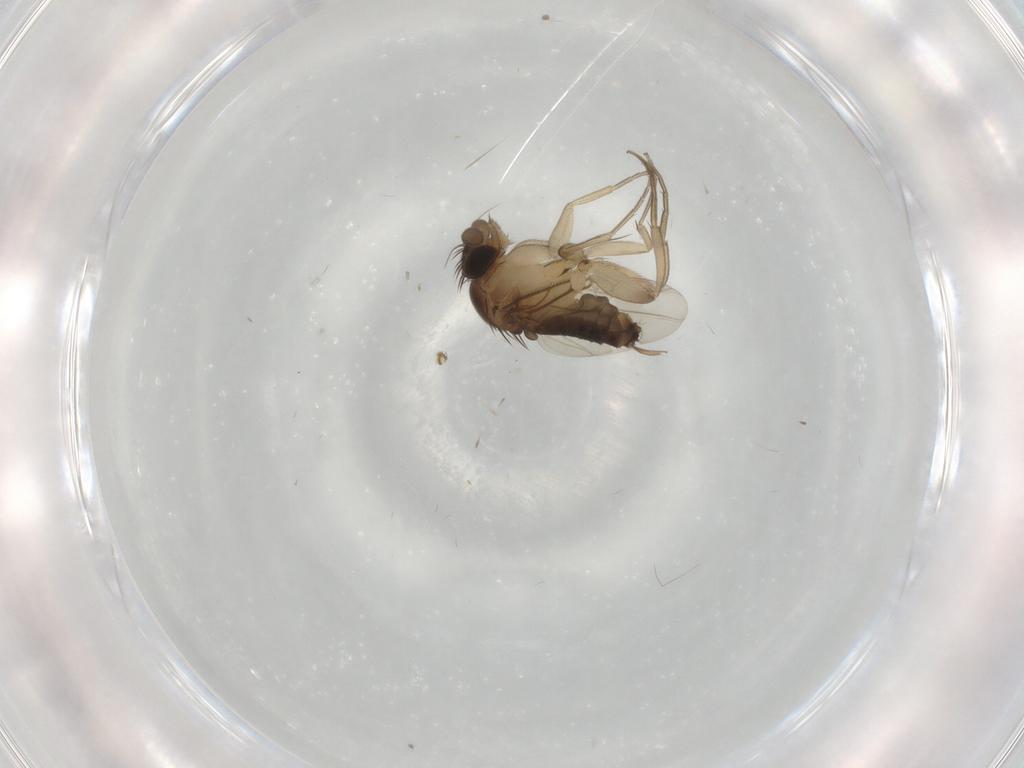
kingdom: Animalia
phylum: Arthropoda
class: Insecta
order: Diptera
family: Phoridae
